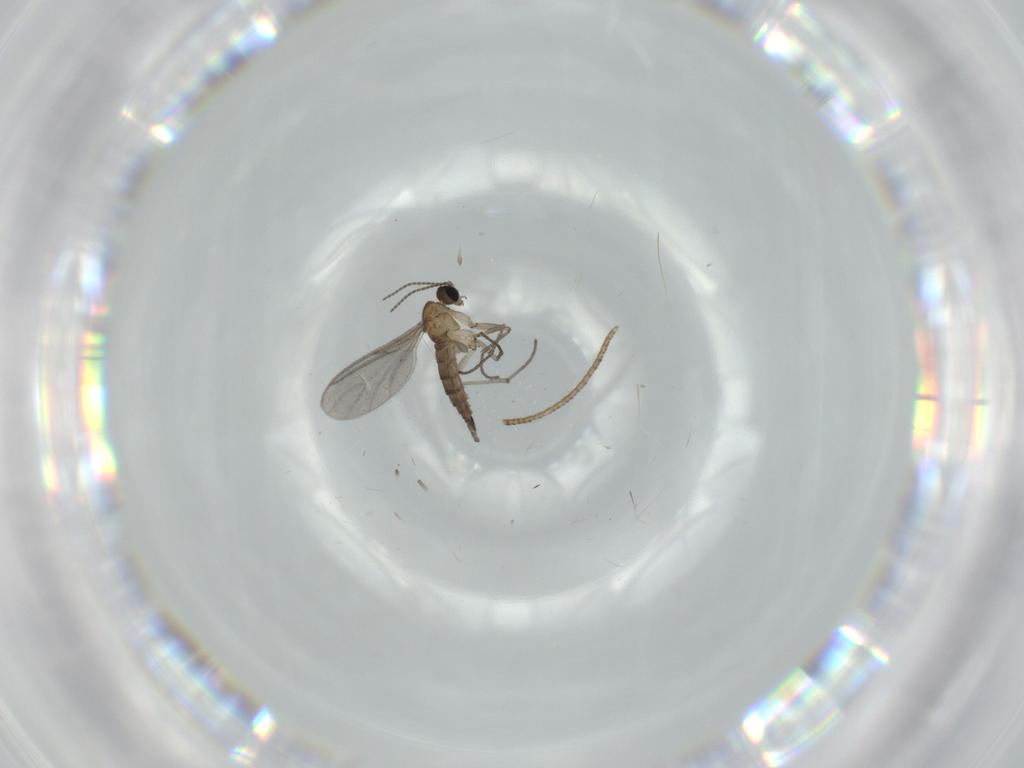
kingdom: Animalia
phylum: Arthropoda
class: Insecta
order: Diptera
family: Sciaridae
